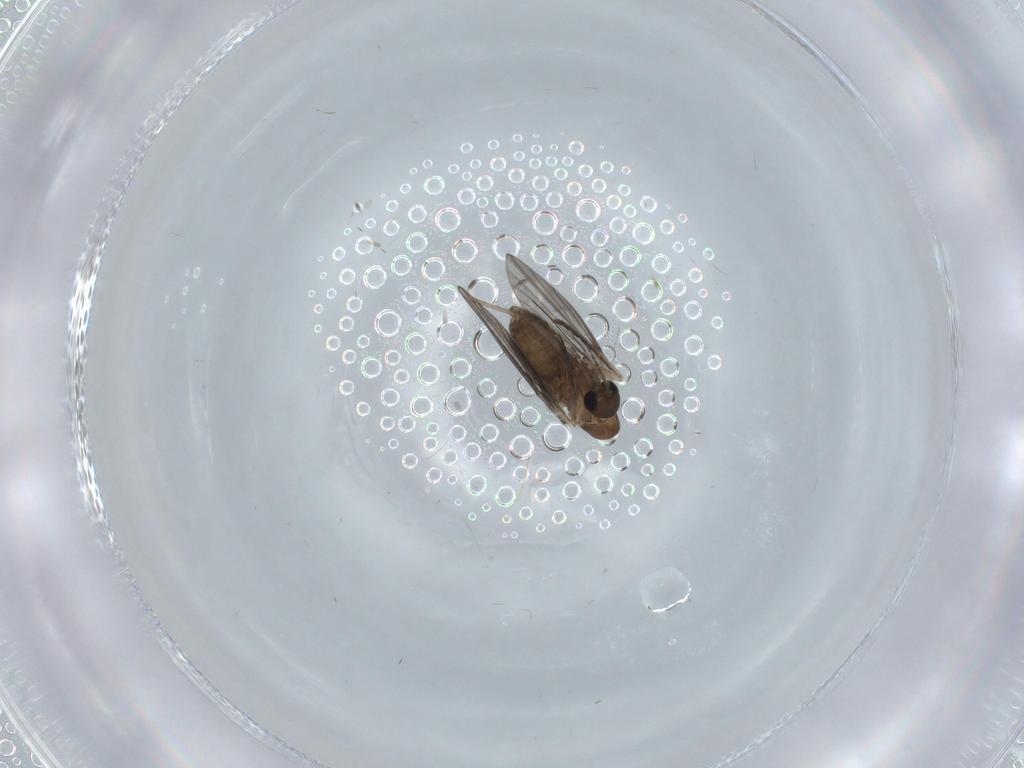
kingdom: Animalia
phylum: Arthropoda
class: Insecta
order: Diptera
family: Psychodidae
